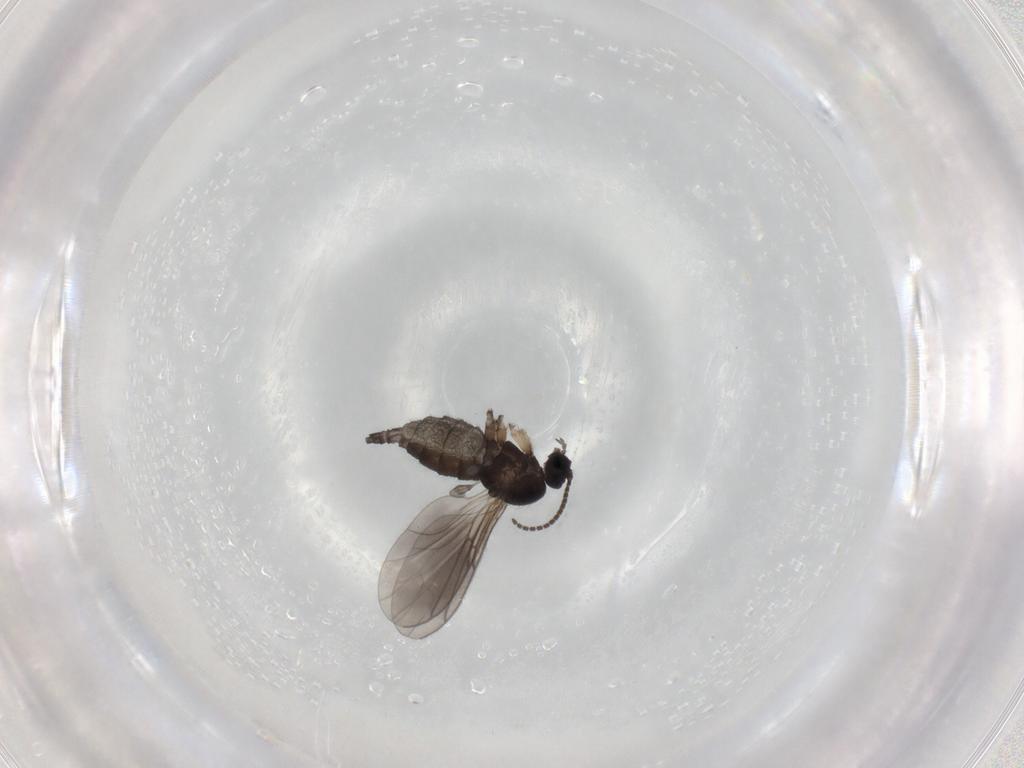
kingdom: Animalia
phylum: Arthropoda
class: Insecta
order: Diptera
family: Sciaridae
